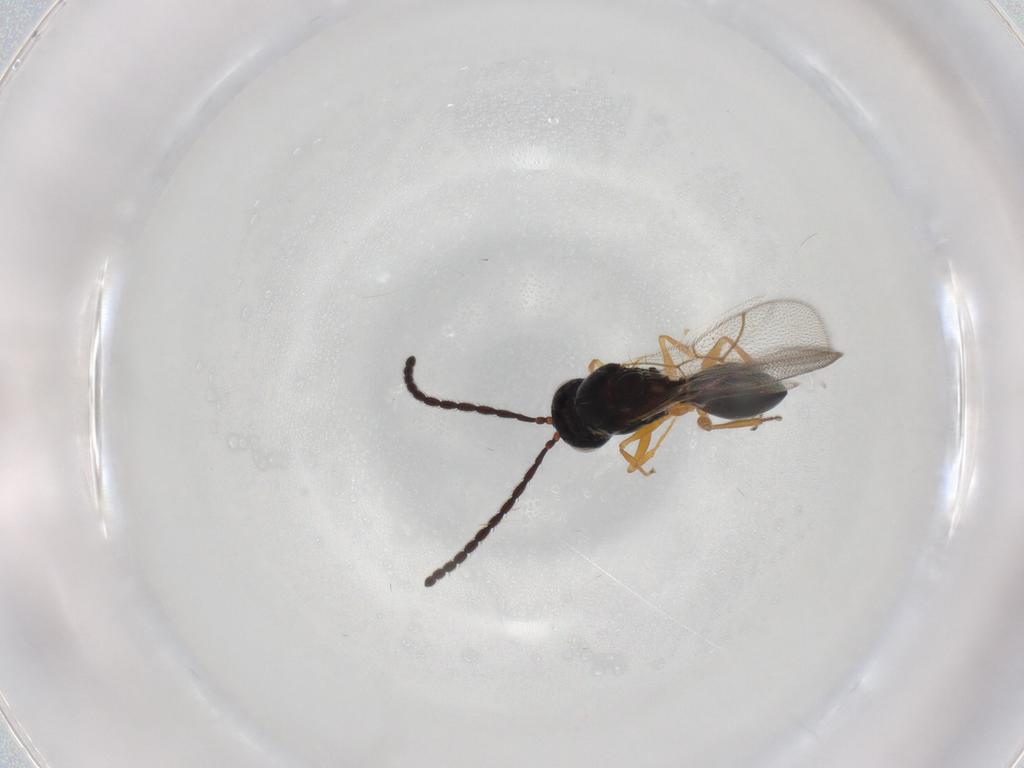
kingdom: Animalia
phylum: Arthropoda
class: Insecta
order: Hymenoptera
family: Figitidae
